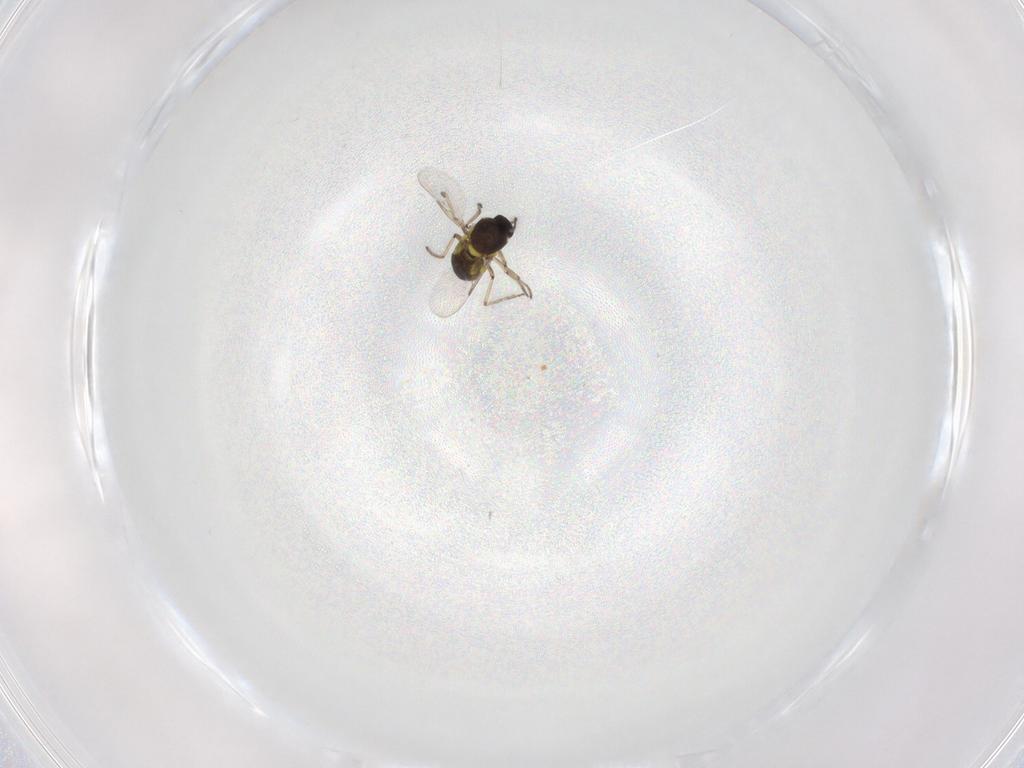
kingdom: Animalia
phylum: Arthropoda
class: Insecta
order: Diptera
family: Ceratopogonidae
